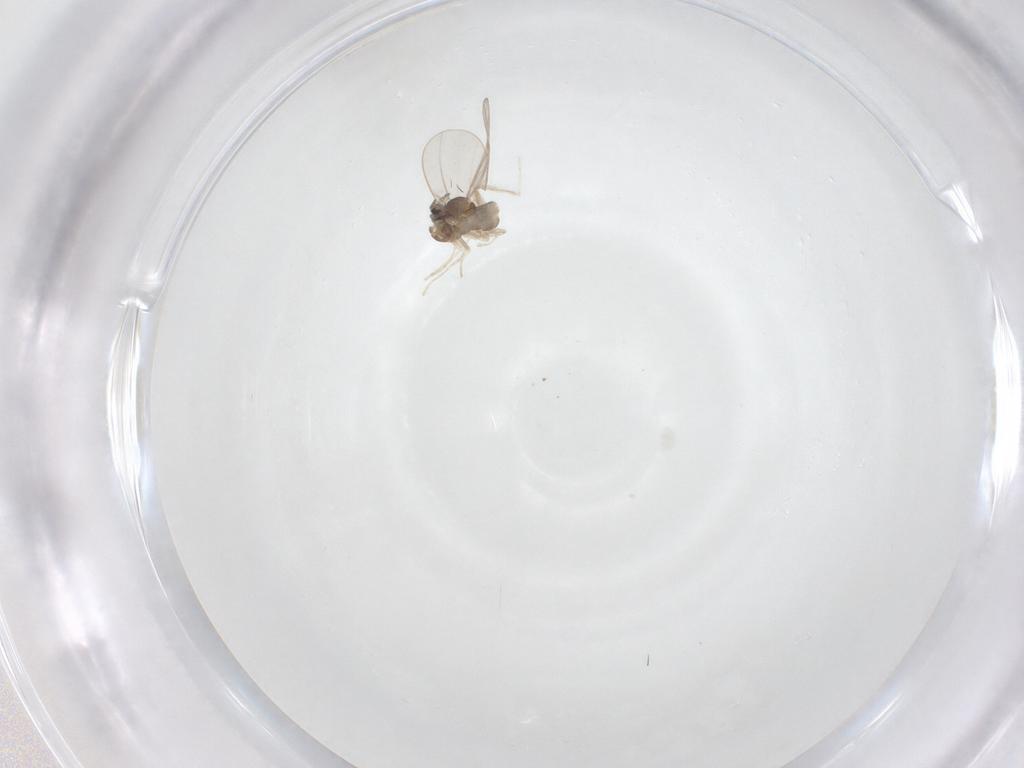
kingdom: Animalia
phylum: Arthropoda
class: Insecta
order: Diptera
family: Cecidomyiidae
